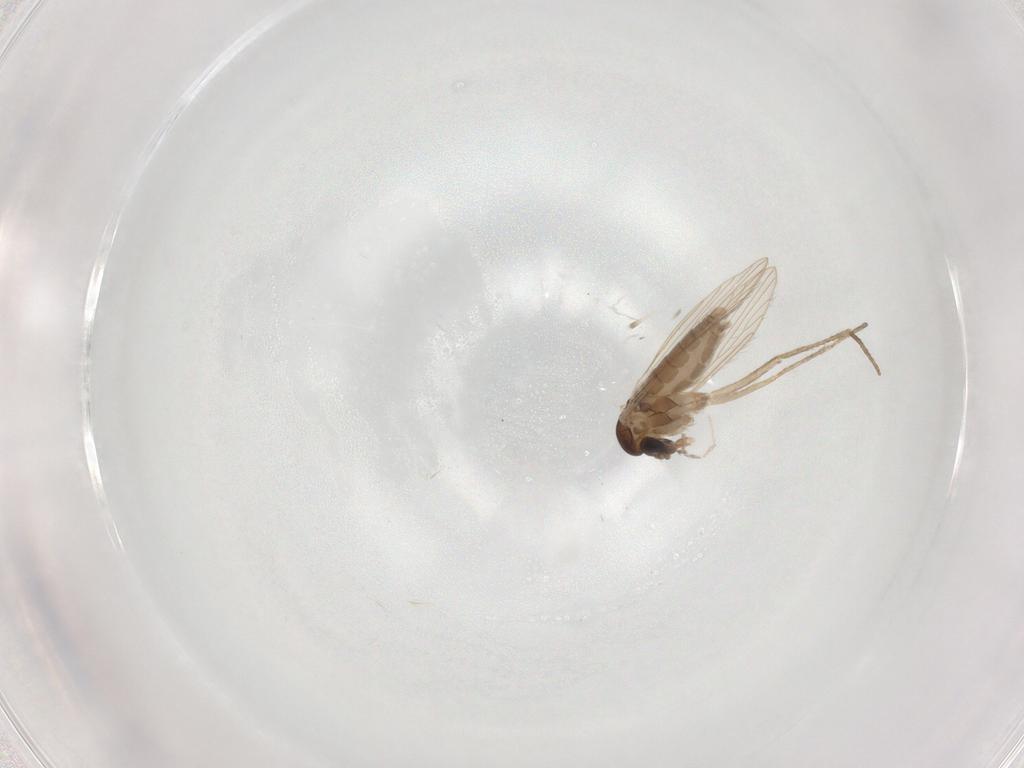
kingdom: Animalia
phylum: Arthropoda
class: Insecta
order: Diptera
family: Psychodidae
